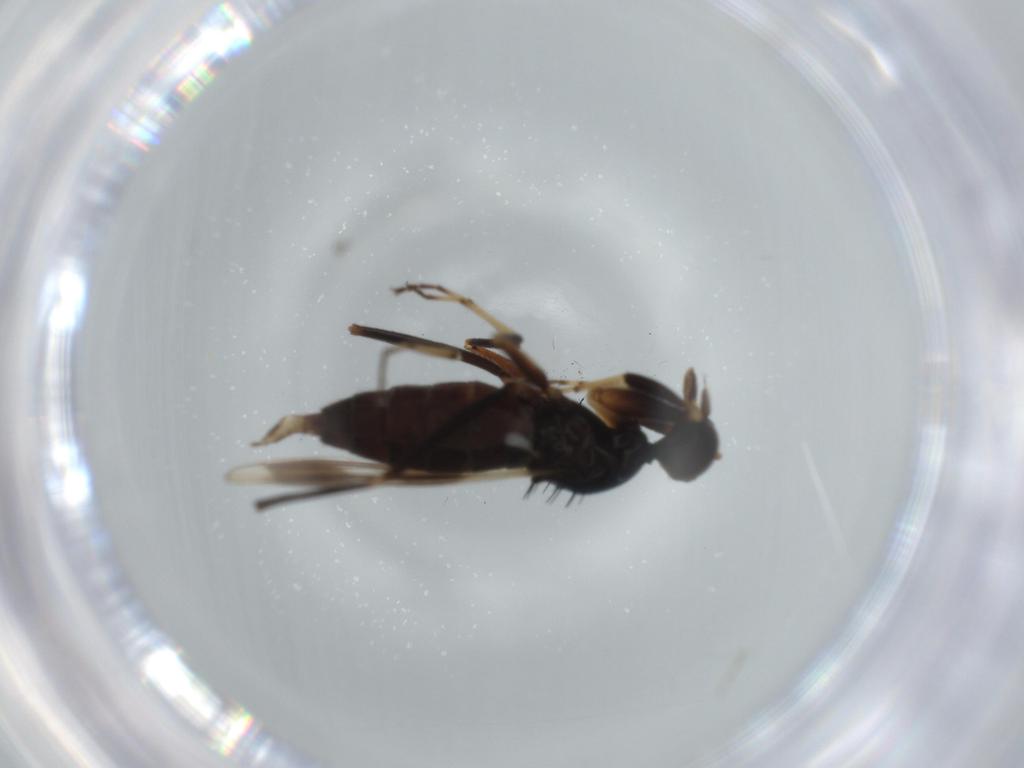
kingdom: Animalia
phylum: Arthropoda
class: Insecta
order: Diptera
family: Hybotidae
